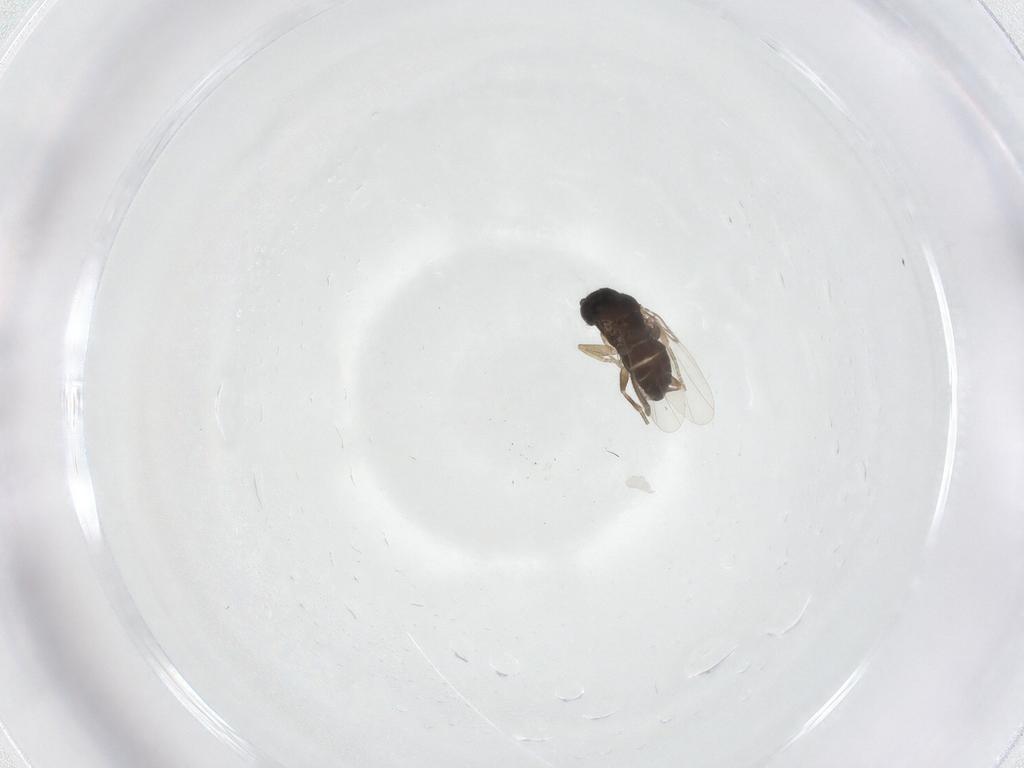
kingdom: Animalia
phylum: Arthropoda
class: Insecta
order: Diptera
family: Phoridae
